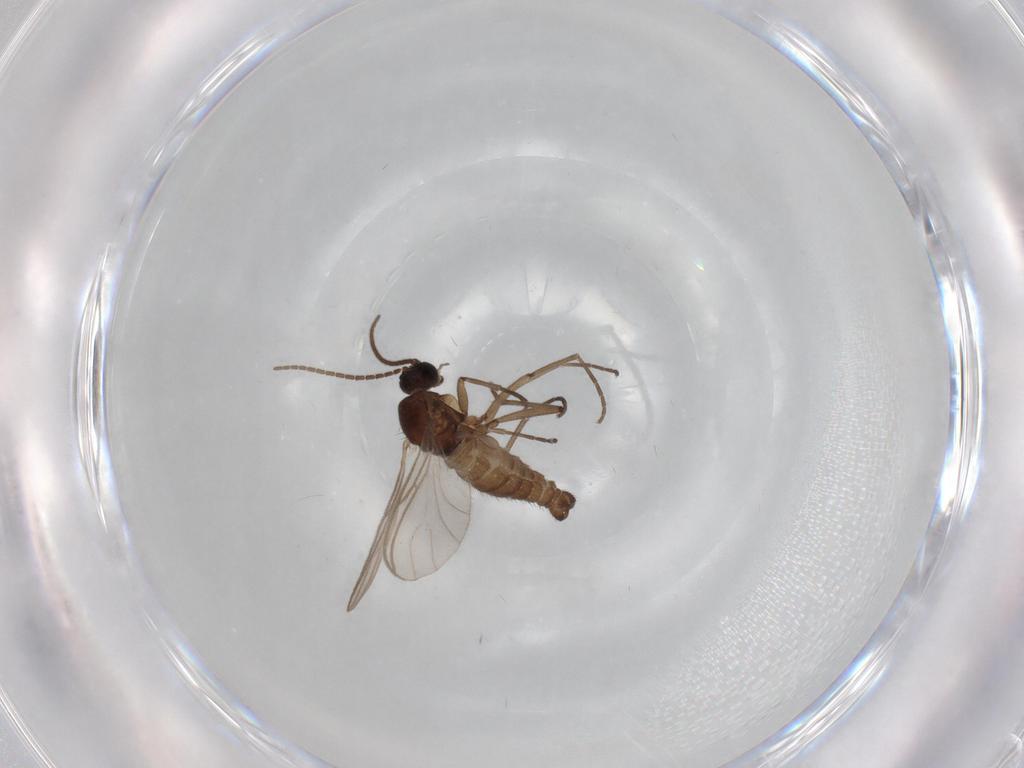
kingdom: Animalia
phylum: Arthropoda
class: Insecta
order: Diptera
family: Sciaridae
